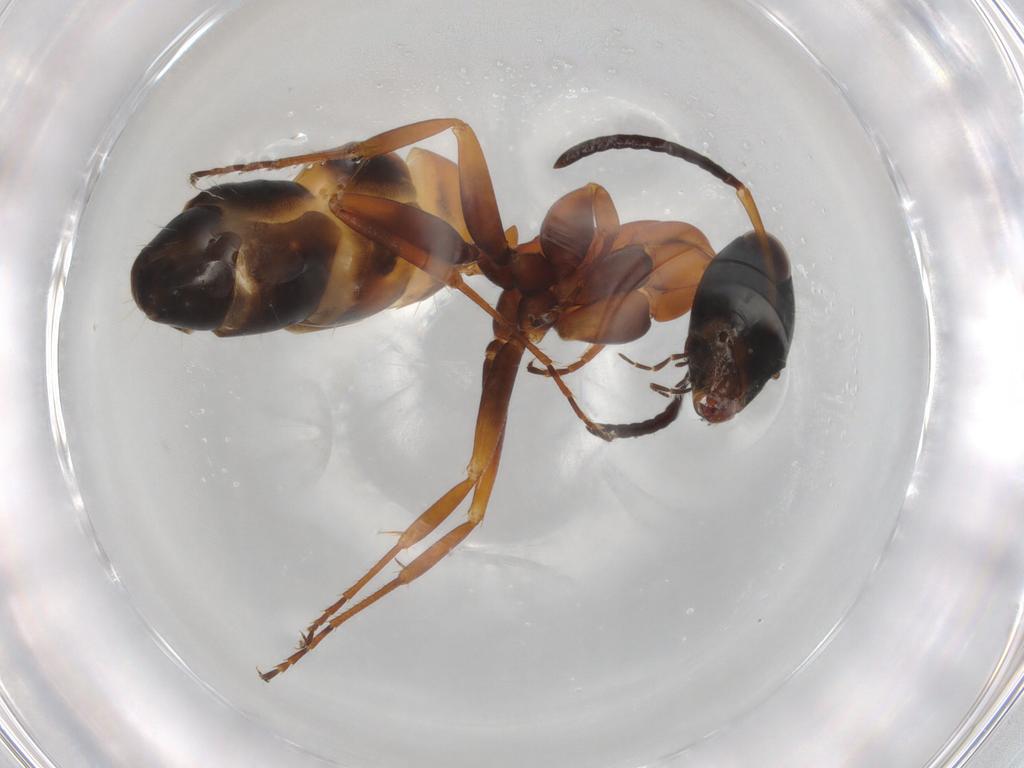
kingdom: Animalia
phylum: Arthropoda
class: Insecta
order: Hymenoptera
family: Formicidae
